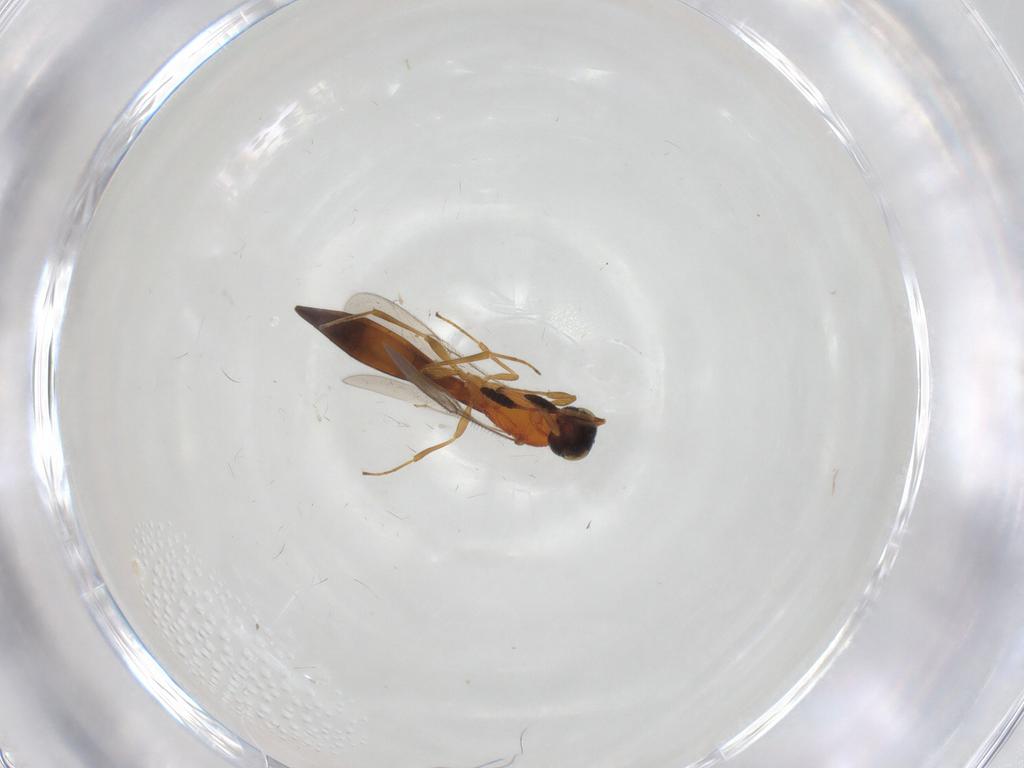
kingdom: Animalia
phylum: Arthropoda
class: Insecta
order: Hymenoptera
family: Scelionidae
